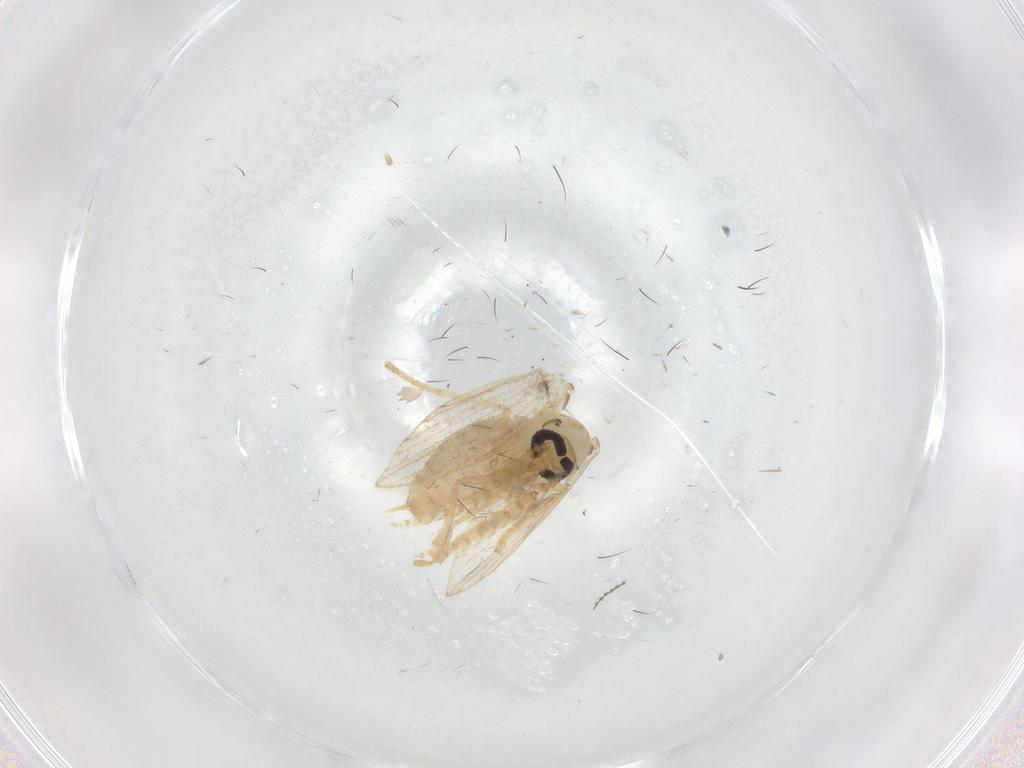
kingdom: Animalia
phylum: Arthropoda
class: Insecta
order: Diptera
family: Psychodidae
